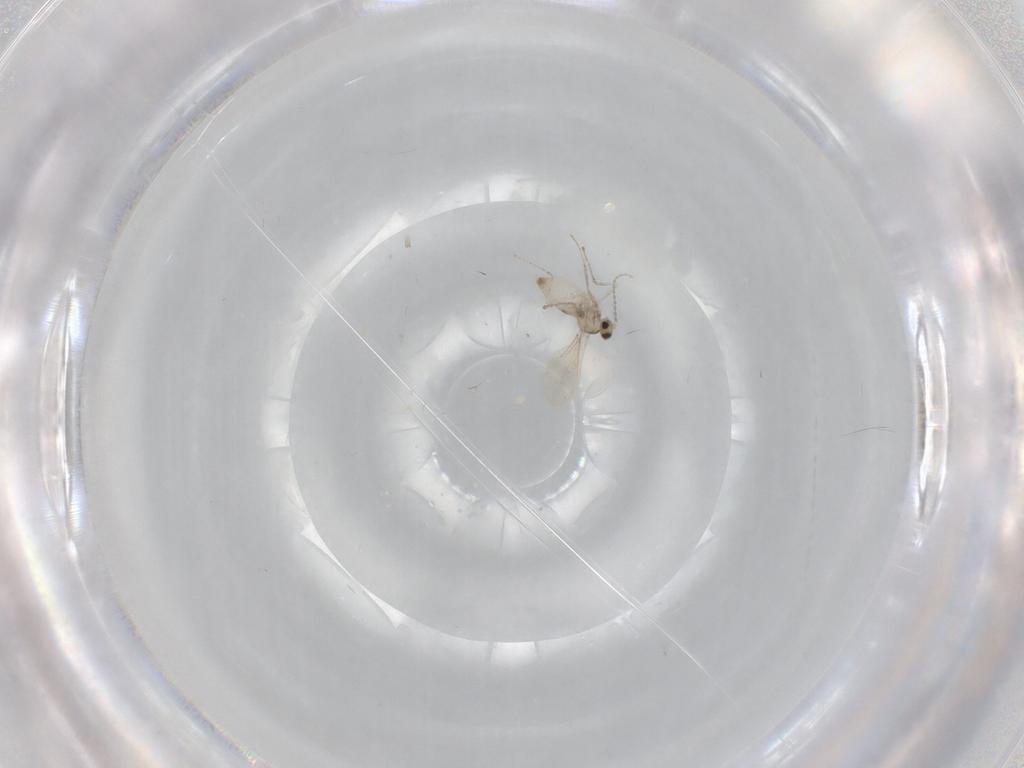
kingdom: Animalia
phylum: Arthropoda
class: Insecta
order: Diptera
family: Cecidomyiidae
